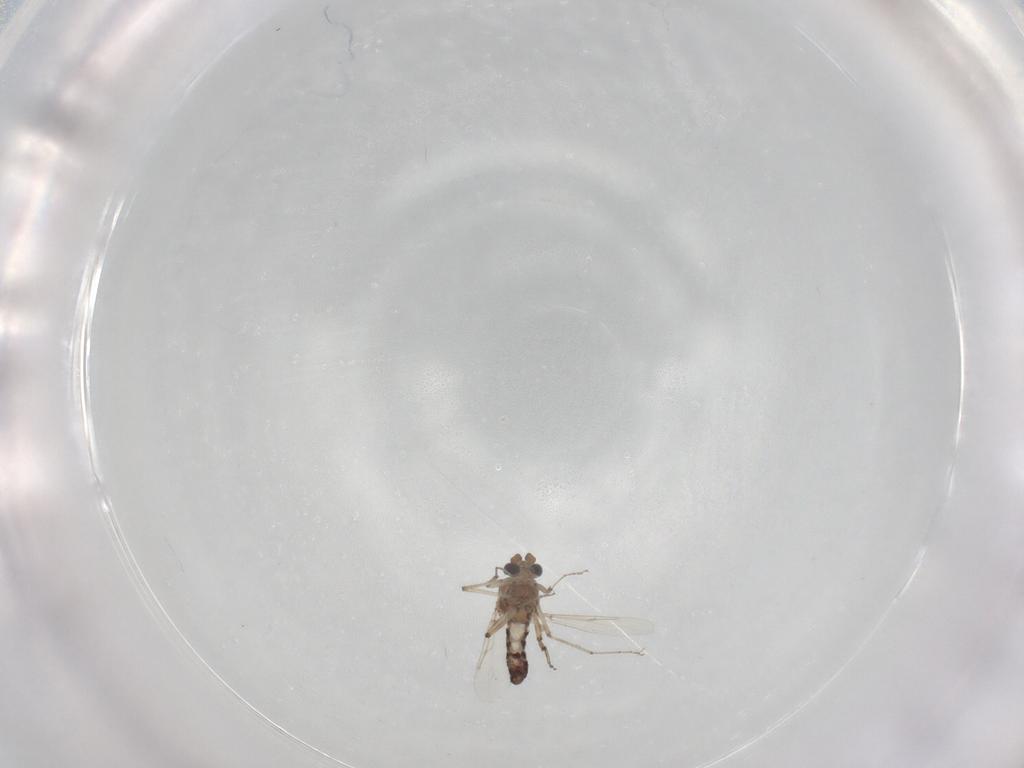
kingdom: Animalia
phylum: Arthropoda
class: Insecta
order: Diptera
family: Ceratopogonidae
